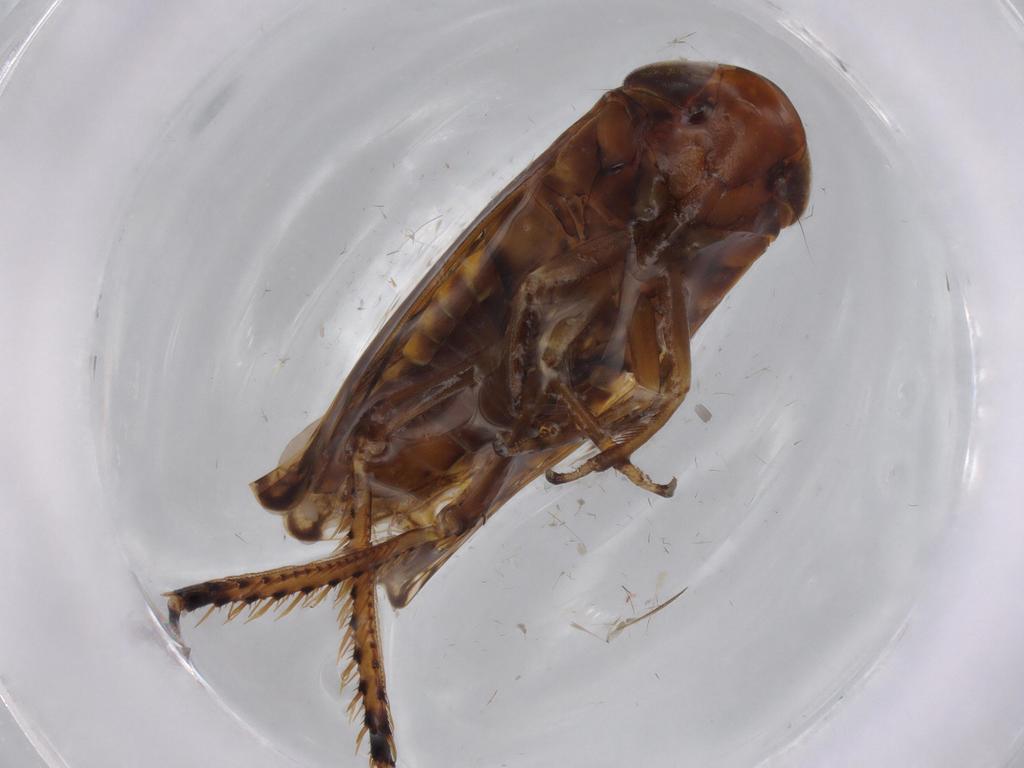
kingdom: Animalia
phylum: Arthropoda
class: Insecta
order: Hemiptera
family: Cicadellidae
